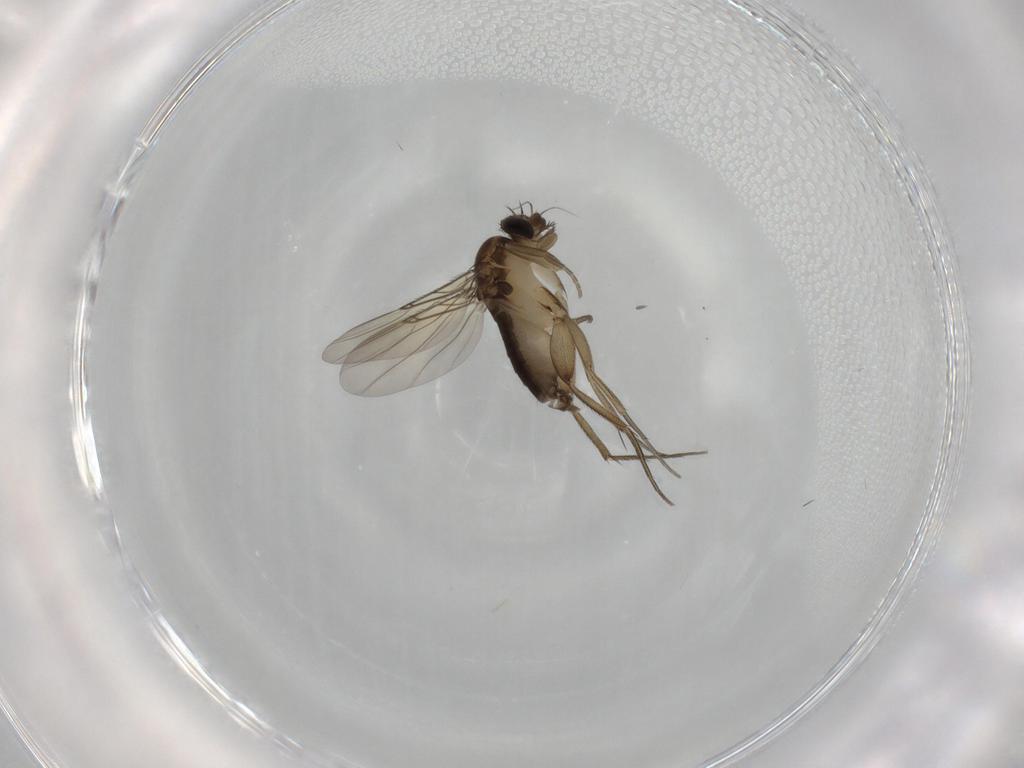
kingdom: Animalia
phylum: Arthropoda
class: Insecta
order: Diptera
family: Phoridae
